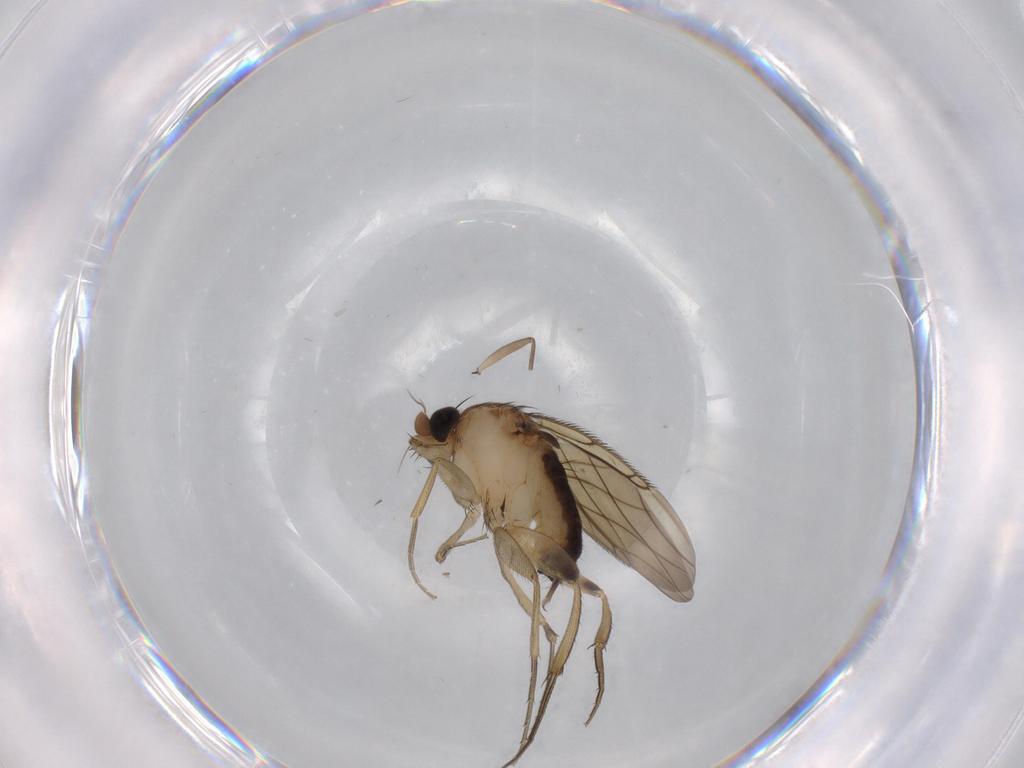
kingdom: Animalia
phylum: Arthropoda
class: Insecta
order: Diptera
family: Phoridae
